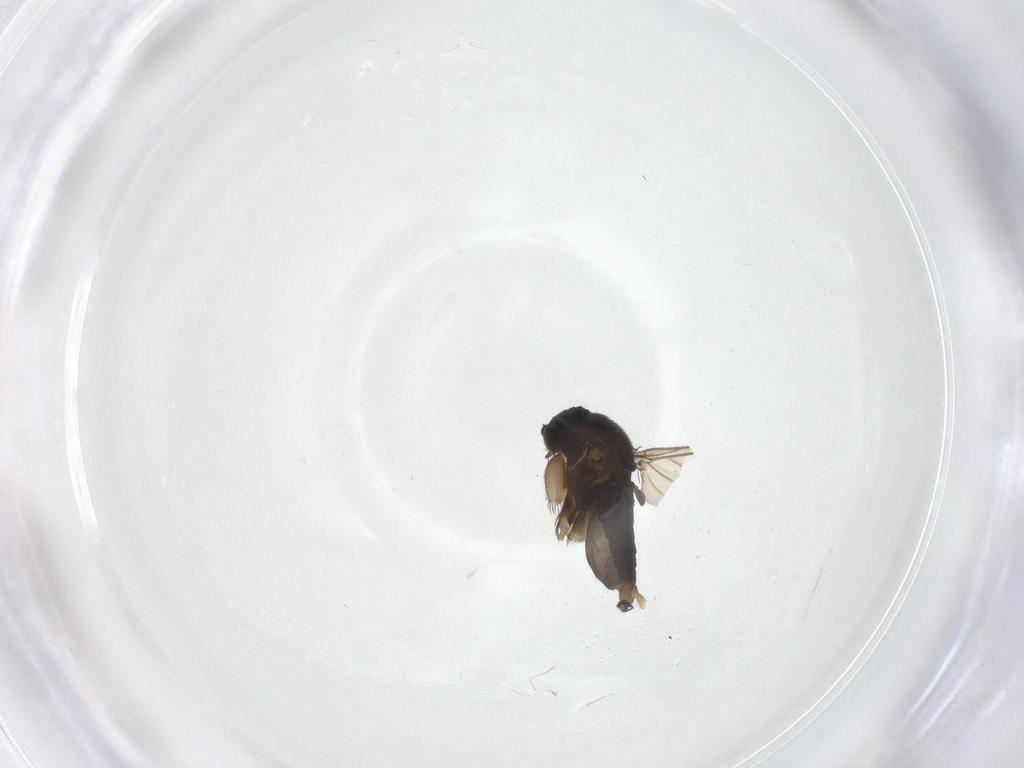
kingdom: Animalia
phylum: Arthropoda
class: Insecta
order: Diptera
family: Phoridae
